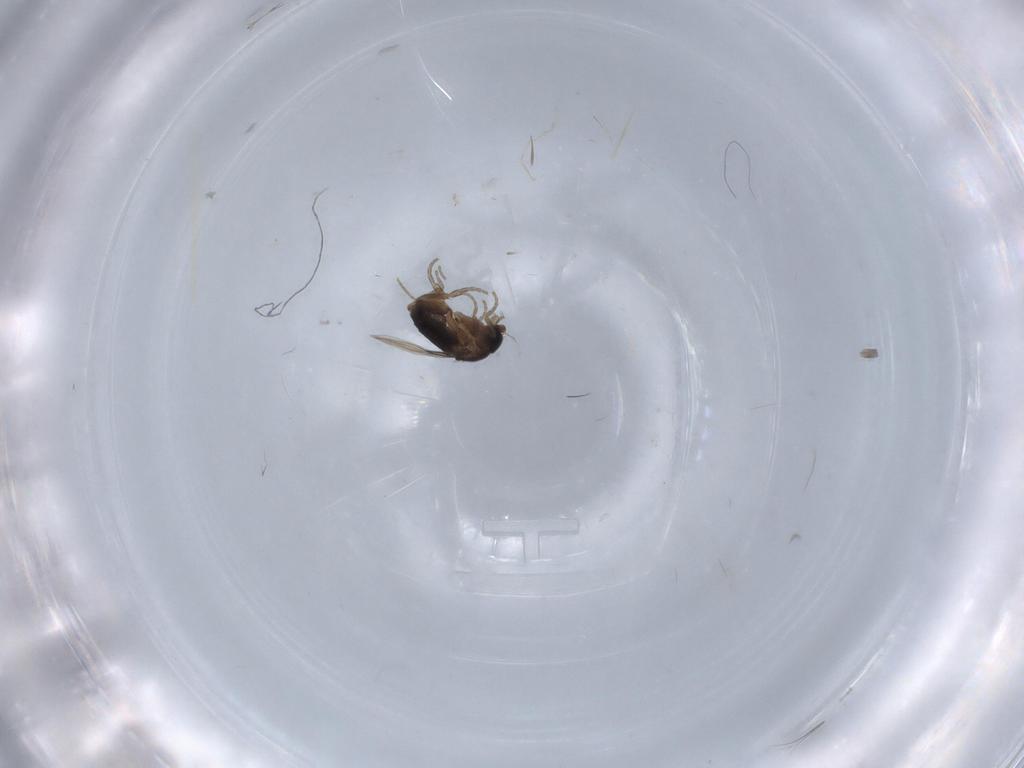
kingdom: Animalia
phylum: Arthropoda
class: Insecta
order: Diptera
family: Phoridae
